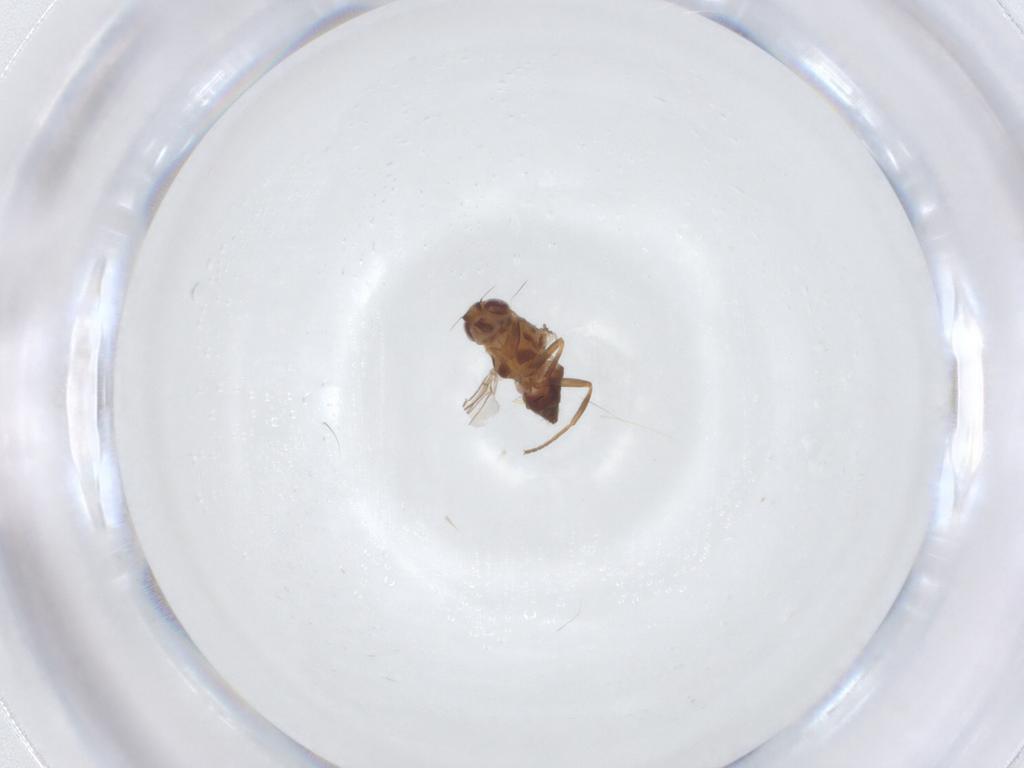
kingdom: Animalia
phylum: Arthropoda
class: Insecta
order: Diptera
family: Chloropidae
